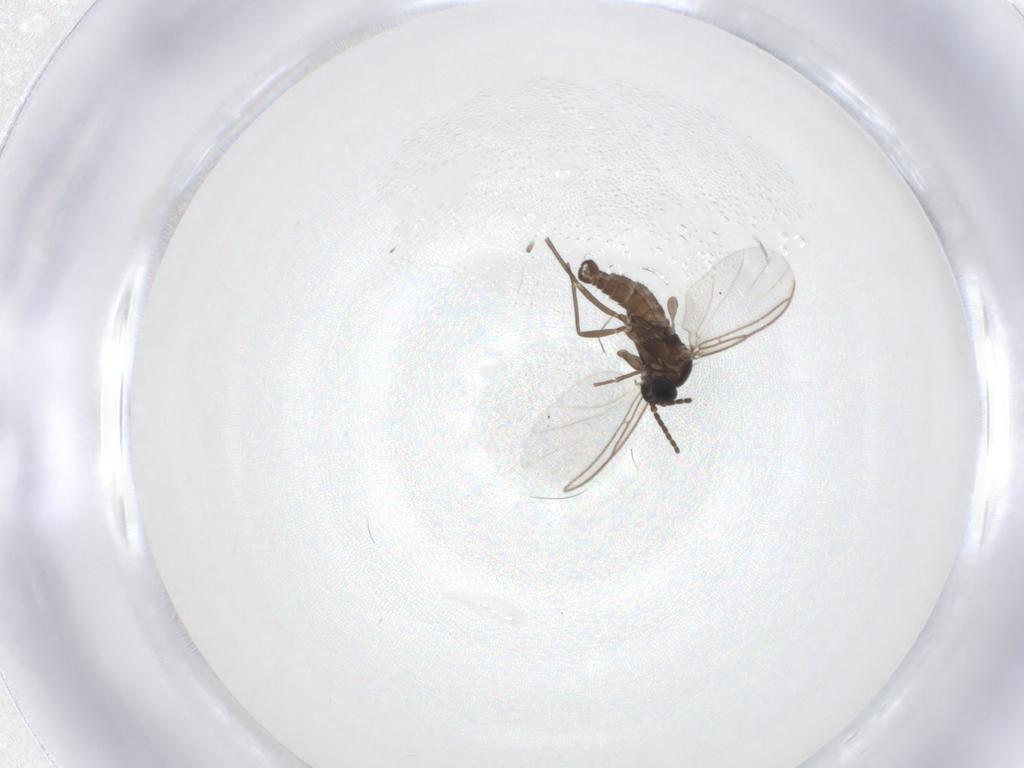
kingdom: Animalia
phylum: Arthropoda
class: Insecta
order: Diptera
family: Sciaridae
